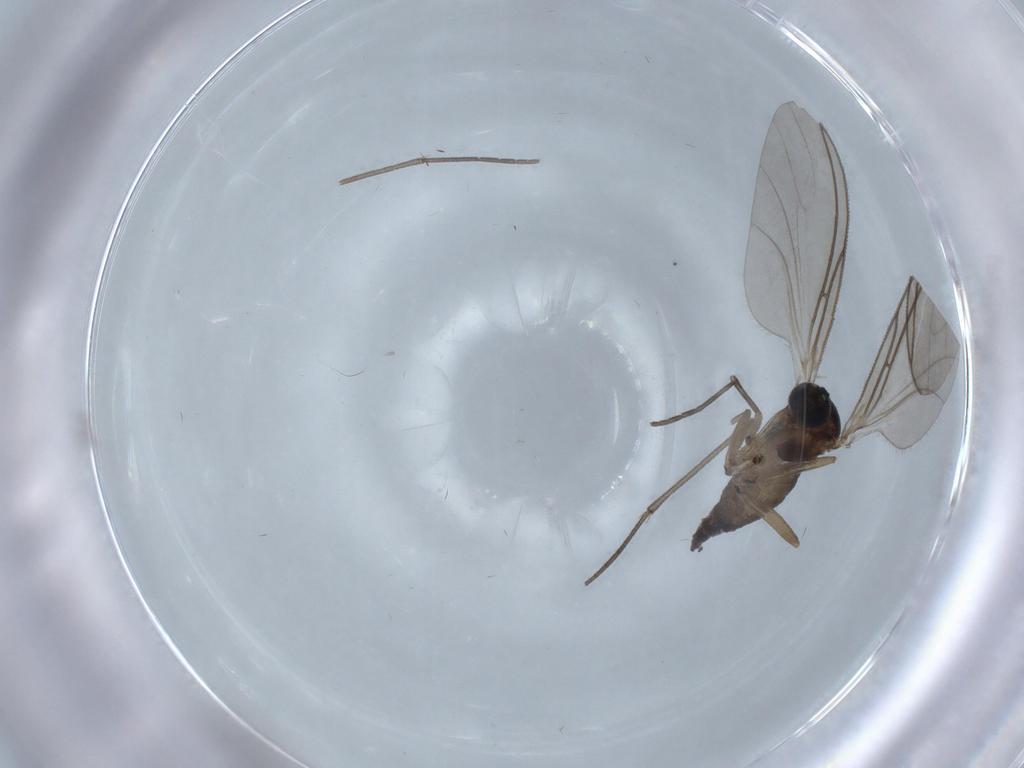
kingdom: Animalia
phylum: Arthropoda
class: Insecta
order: Diptera
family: Sciaridae
